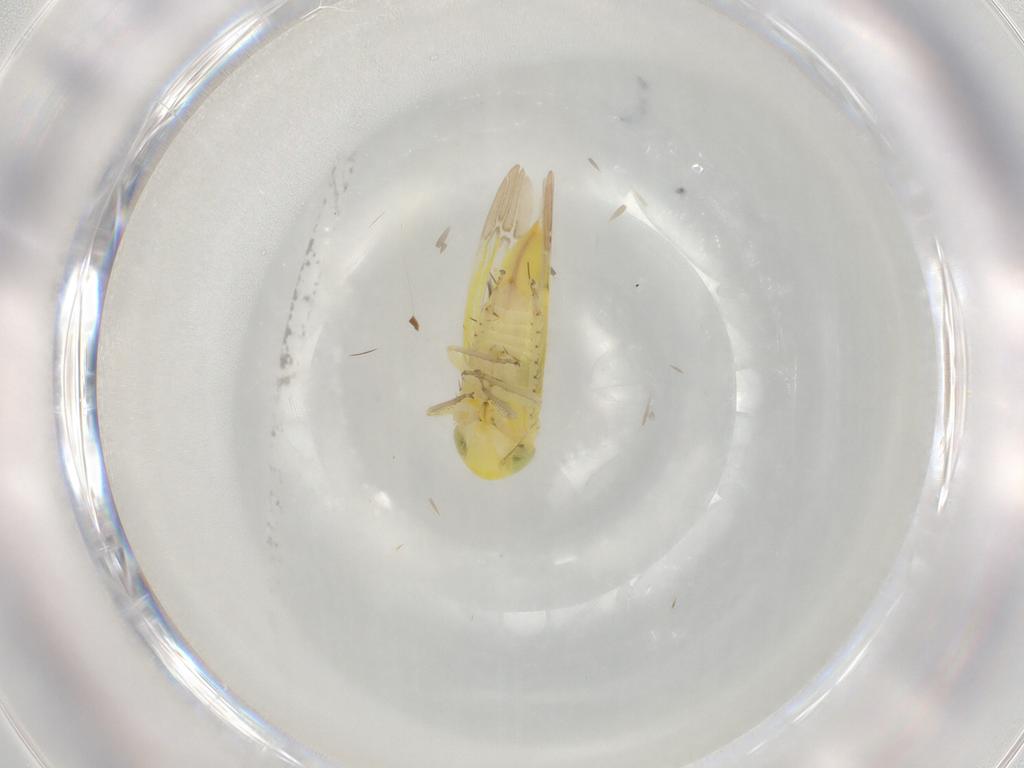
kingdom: Animalia
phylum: Arthropoda
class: Insecta
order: Hemiptera
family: Cicadellidae
